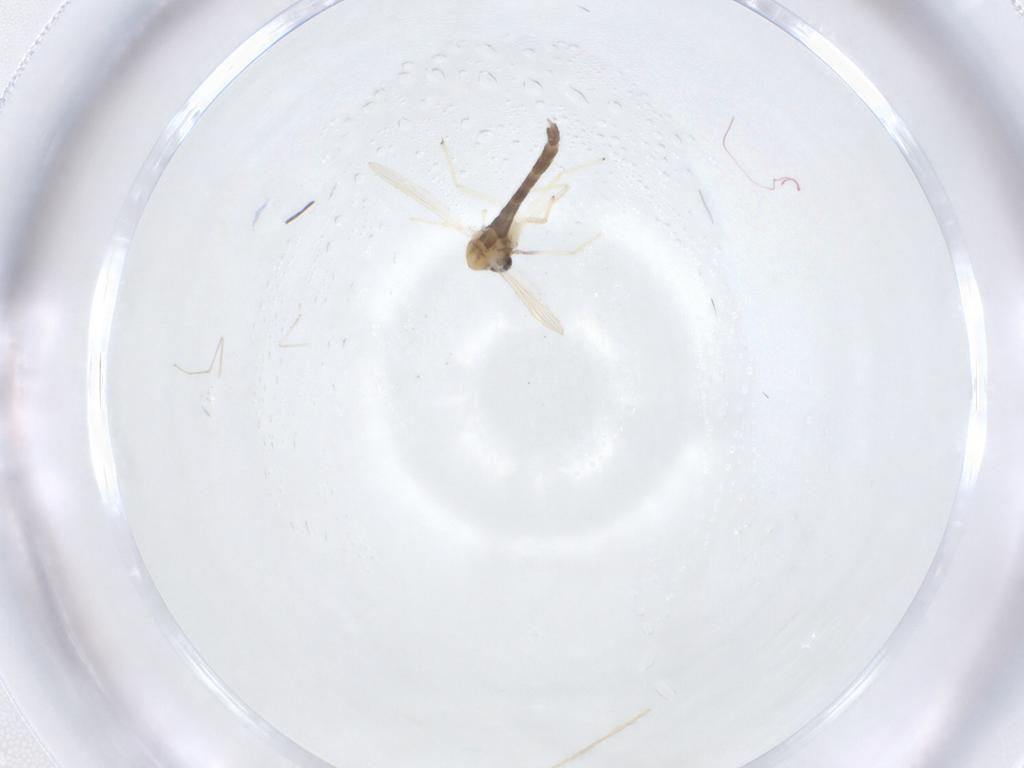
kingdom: Animalia
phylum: Arthropoda
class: Insecta
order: Diptera
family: Cecidomyiidae
